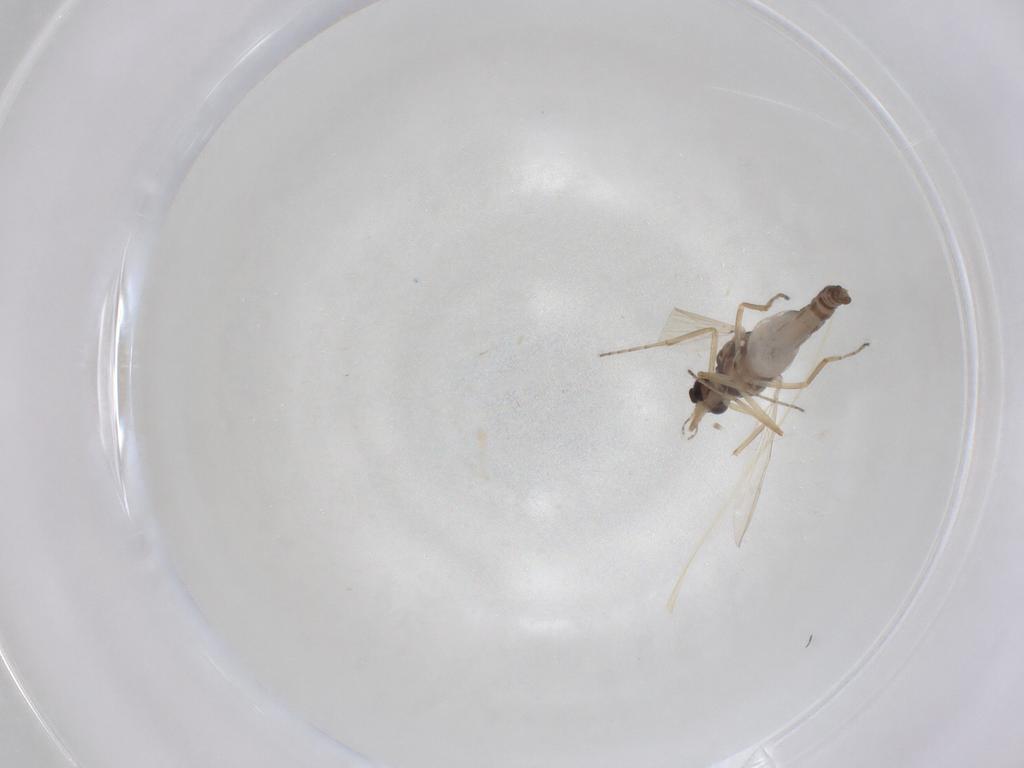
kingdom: Animalia
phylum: Arthropoda
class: Insecta
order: Diptera
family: Ceratopogonidae
